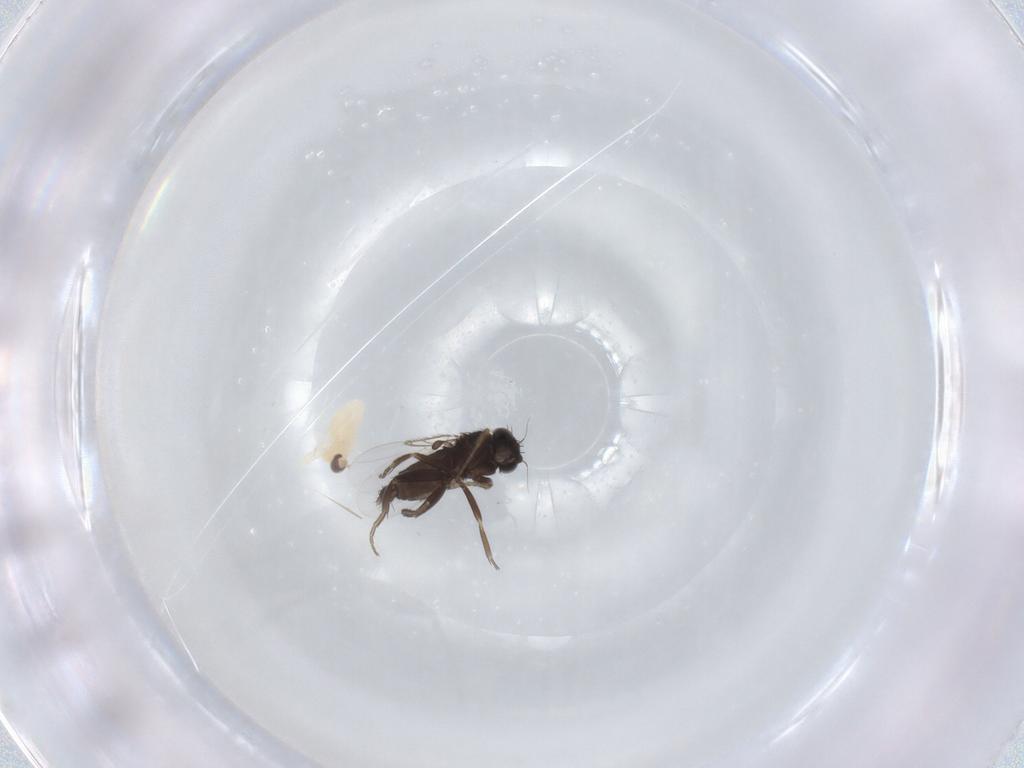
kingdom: Animalia
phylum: Arthropoda
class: Insecta
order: Diptera
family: Phoridae
